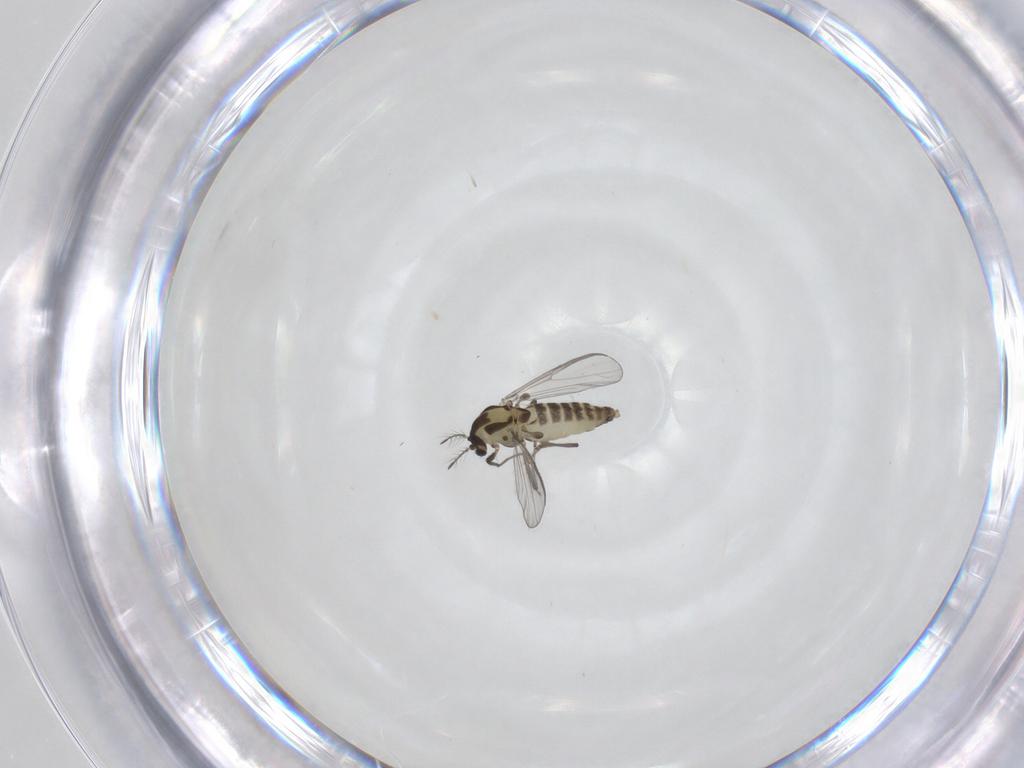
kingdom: Animalia
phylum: Arthropoda
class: Insecta
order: Diptera
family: Chironomidae
